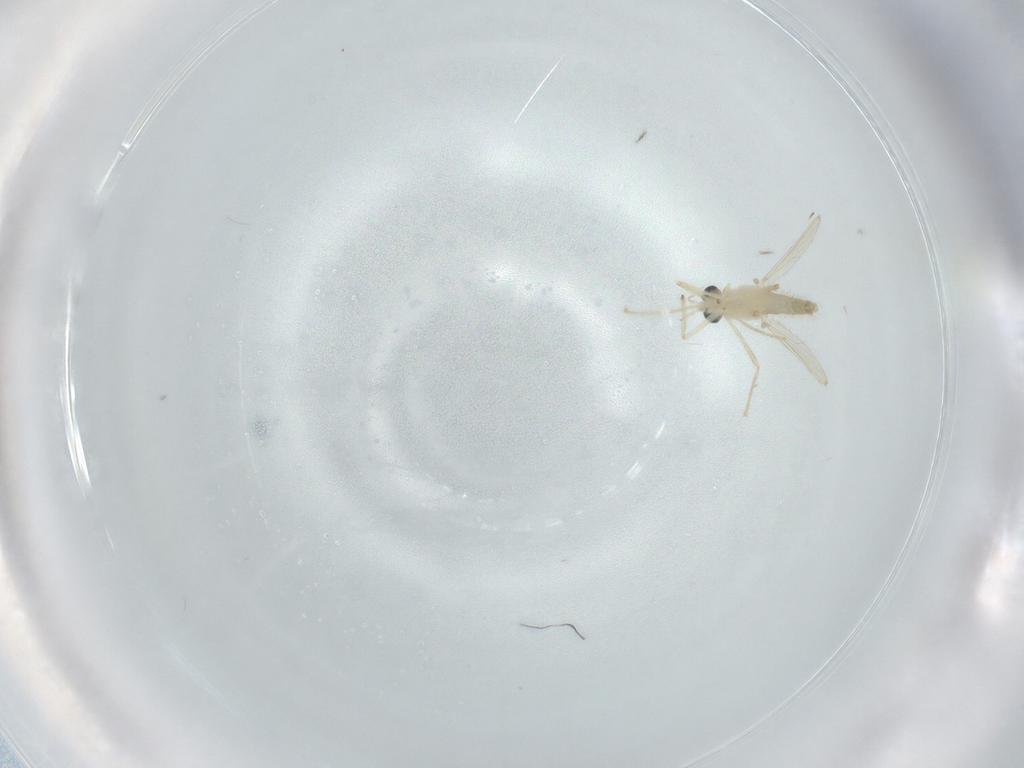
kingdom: Animalia
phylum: Arthropoda
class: Insecta
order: Diptera
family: Chironomidae
